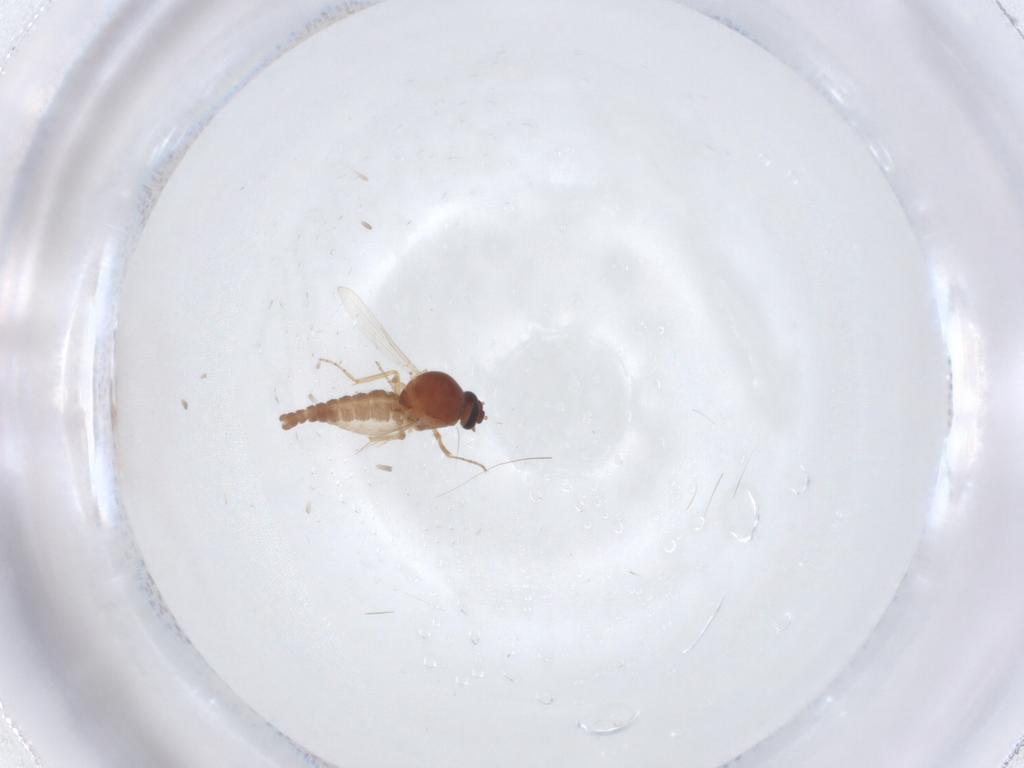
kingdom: Animalia
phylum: Arthropoda
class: Insecta
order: Diptera
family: Ceratopogonidae
